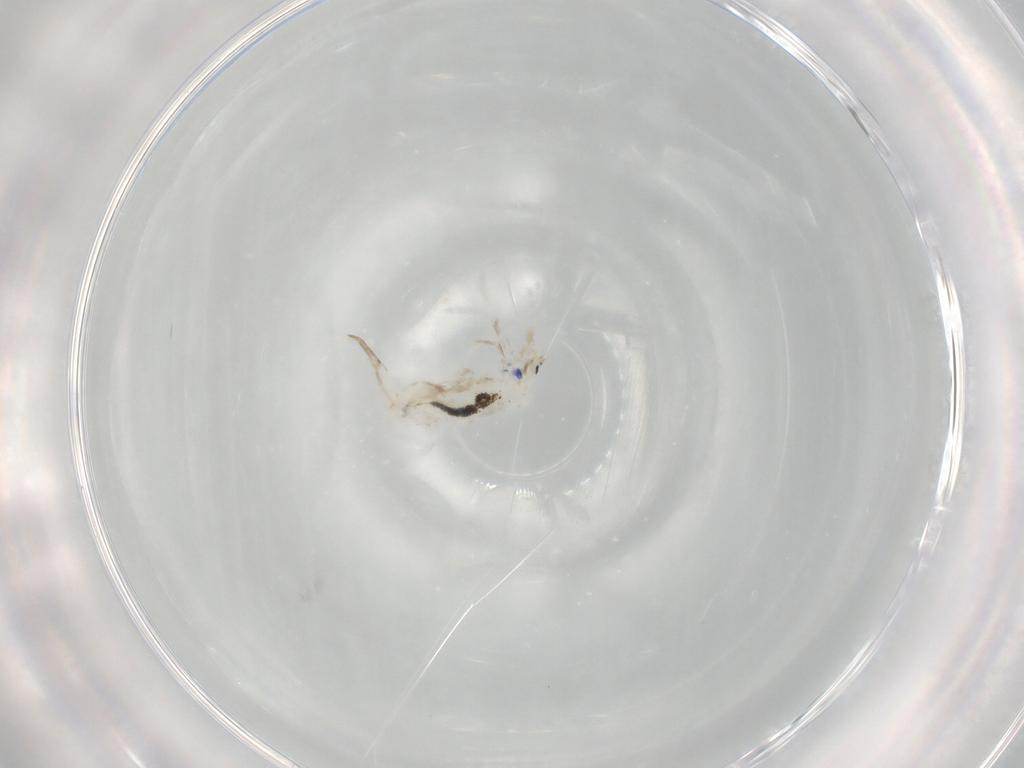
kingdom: Animalia
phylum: Arthropoda
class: Collembola
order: Entomobryomorpha
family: Entomobryidae
